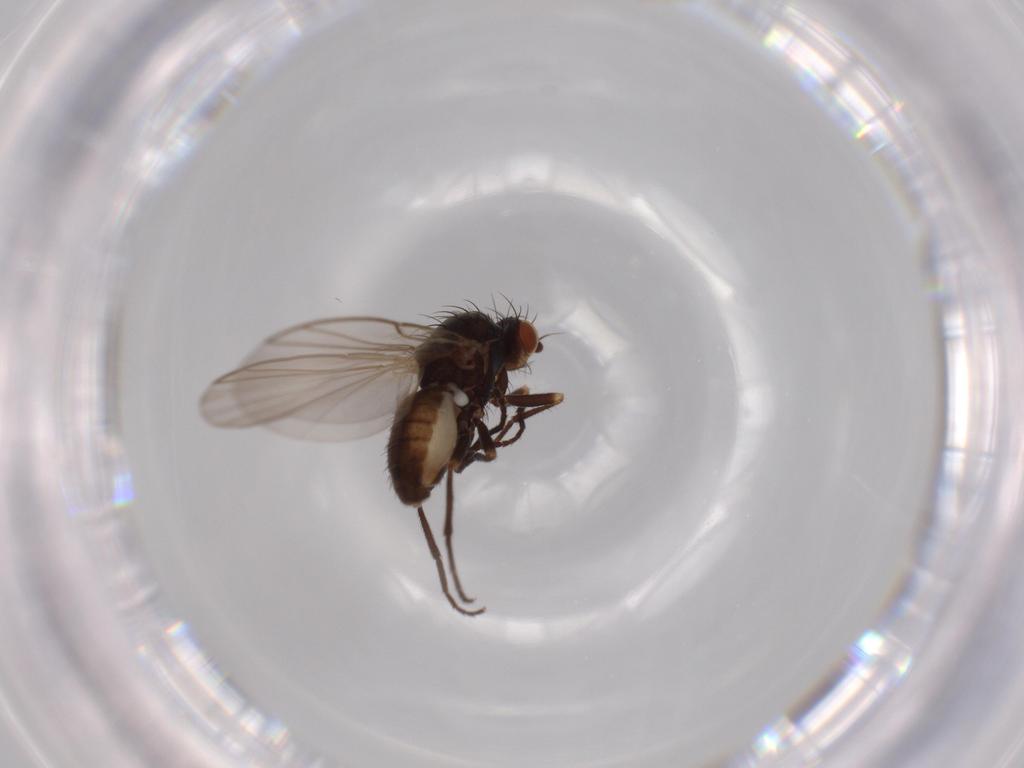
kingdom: Animalia
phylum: Arthropoda
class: Insecta
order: Diptera
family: Agromyzidae
